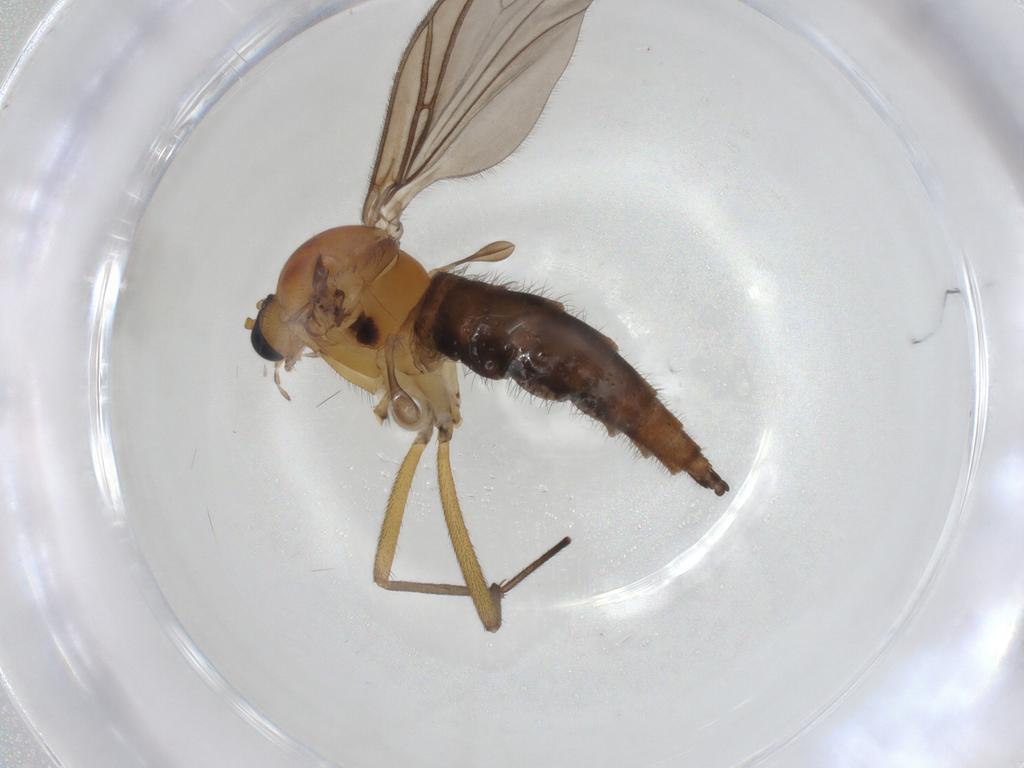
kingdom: Animalia
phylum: Arthropoda
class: Insecta
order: Diptera
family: Sciaridae
